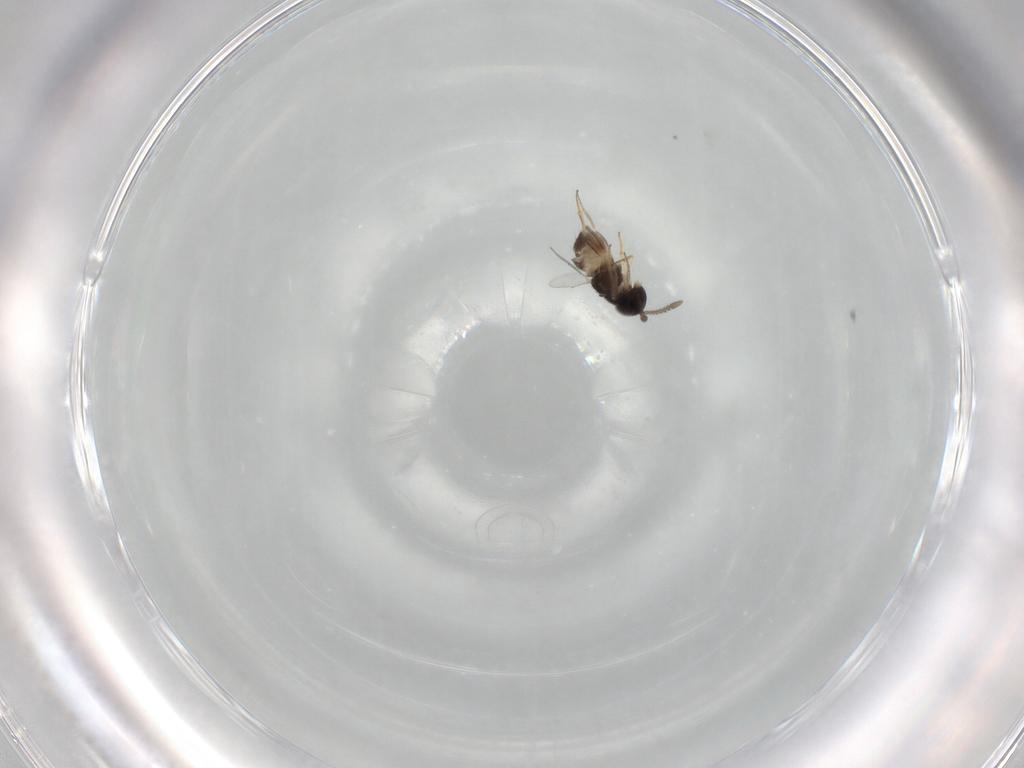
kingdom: Animalia
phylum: Arthropoda
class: Insecta
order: Hymenoptera
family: Encyrtidae
